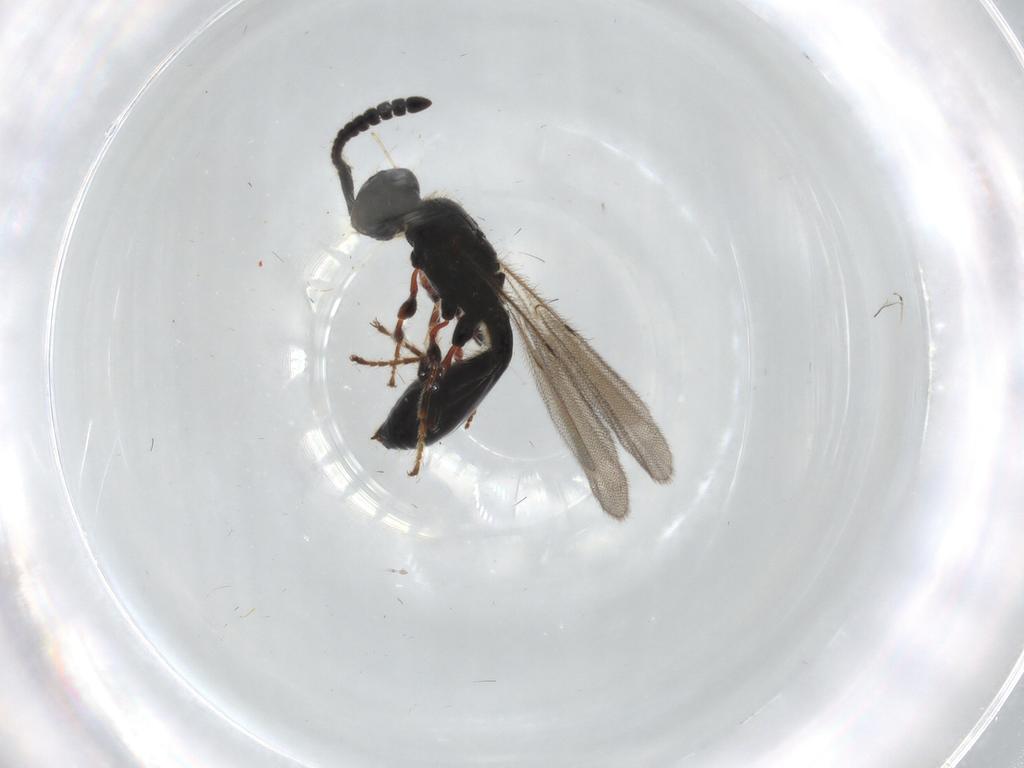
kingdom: Animalia
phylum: Arthropoda
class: Insecta
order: Hymenoptera
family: Diapriidae
